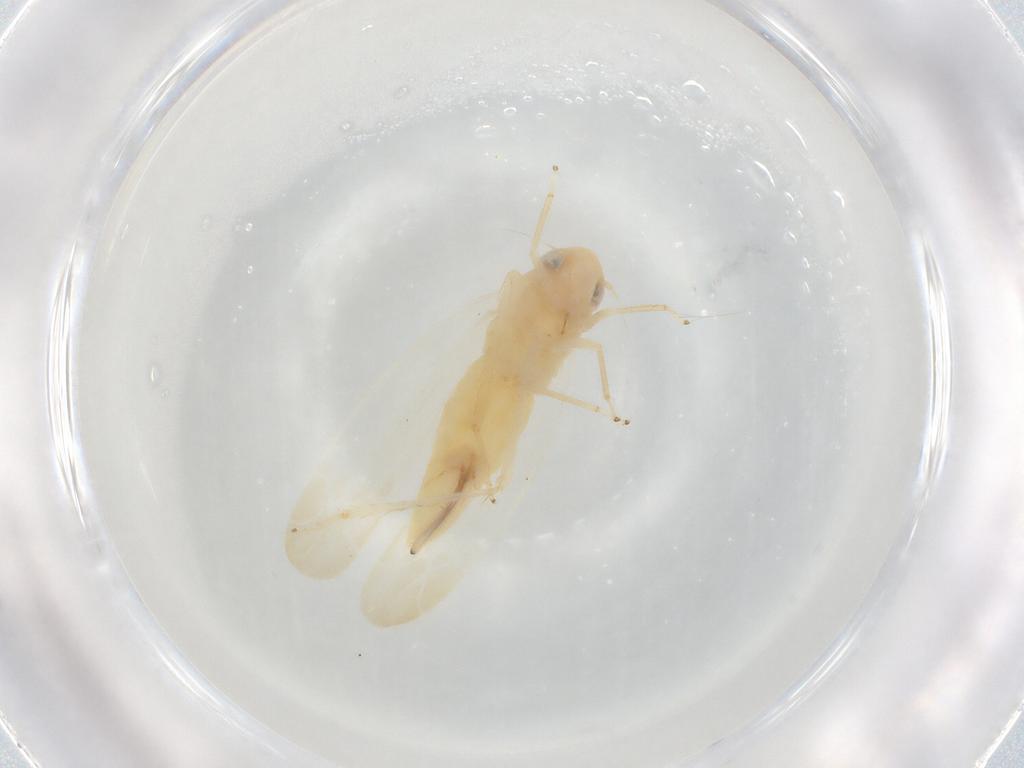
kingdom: Animalia
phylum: Arthropoda
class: Insecta
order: Hemiptera
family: Cicadellidae
